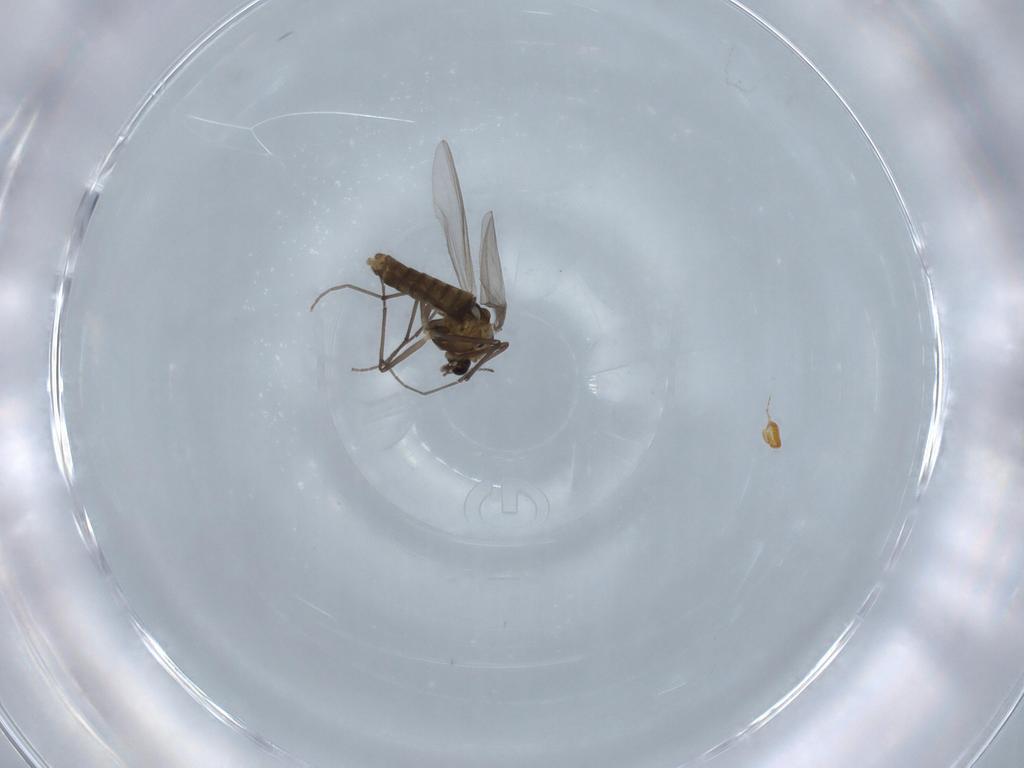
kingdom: Animalia
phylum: Arthropoda
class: Insecta
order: Diptera
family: Chironomidae
